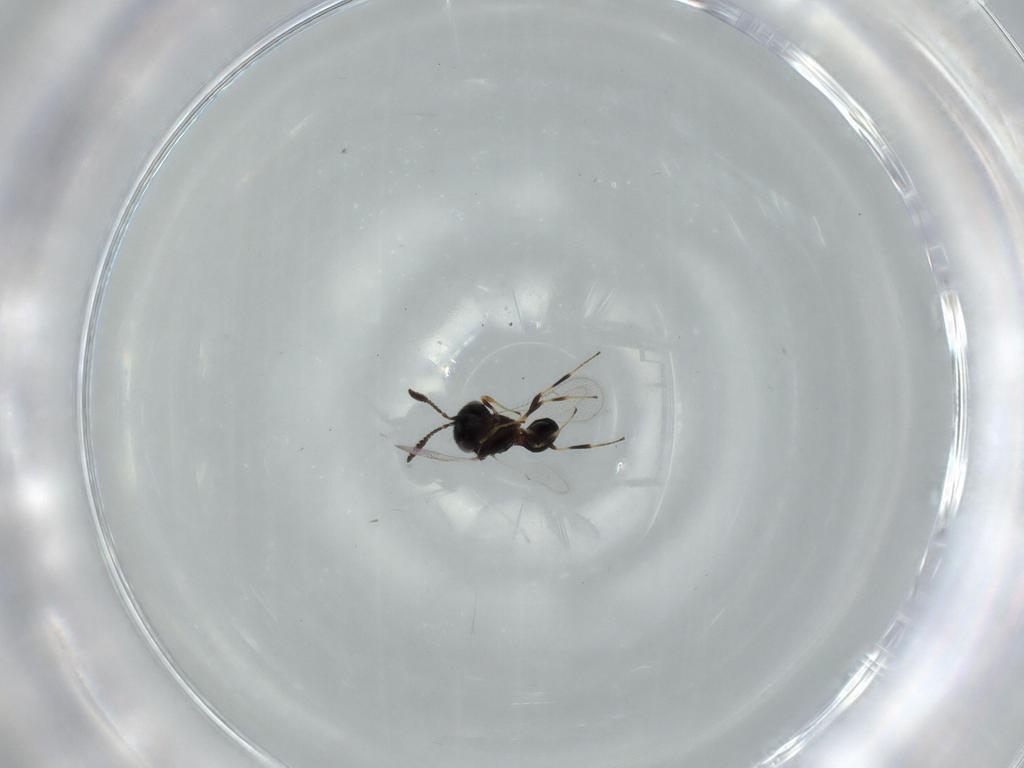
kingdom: Animalia
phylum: Arthropoda
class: Insecta
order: Hymenoptera
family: Scelionidae
